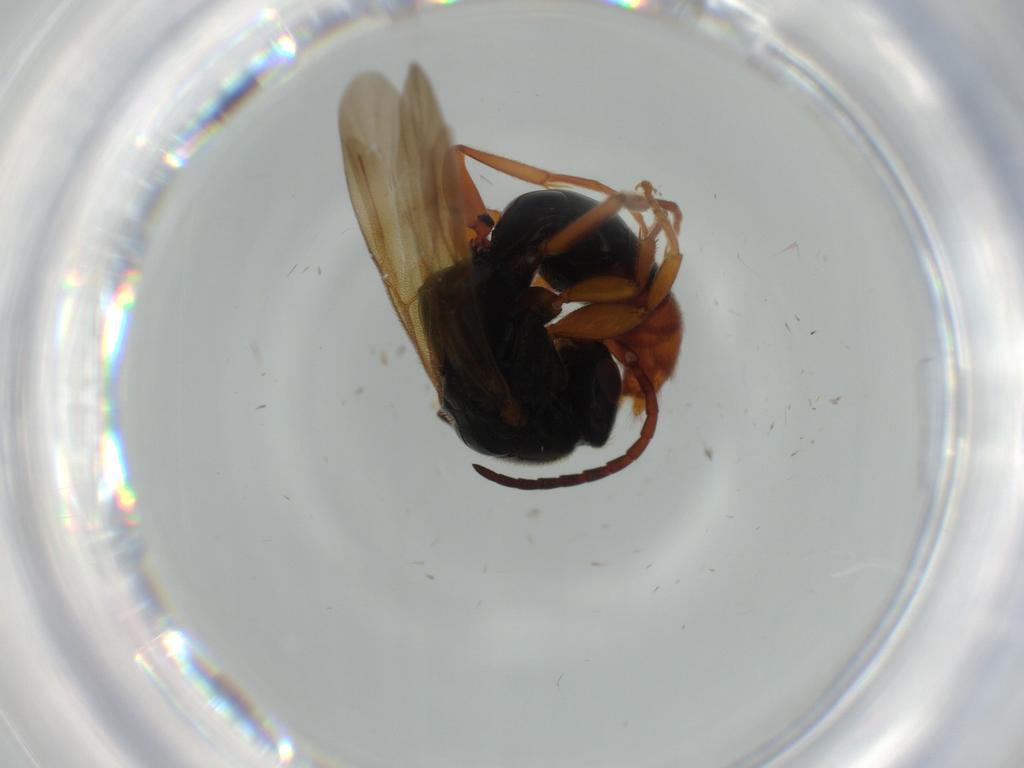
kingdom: Animalia
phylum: Arthropoda
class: Insecta
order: Hymenoptera
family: Bethylidae
